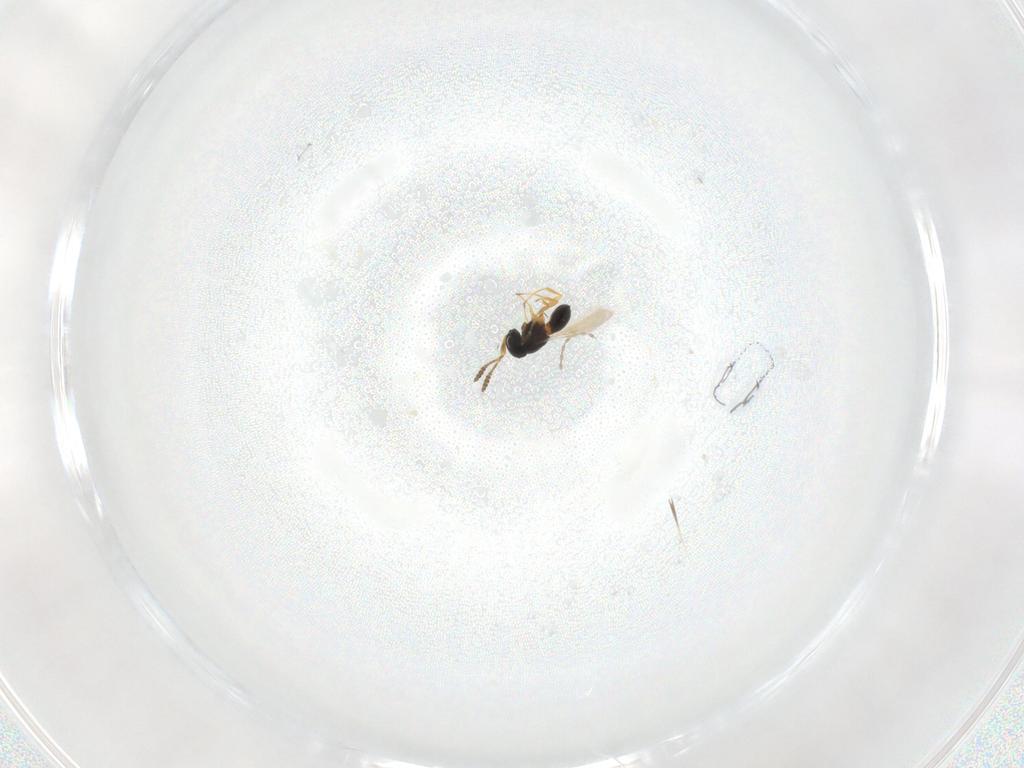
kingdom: Animalia
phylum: Arthropoda
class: Insecta
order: Hymenoptera
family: Scelionidae
